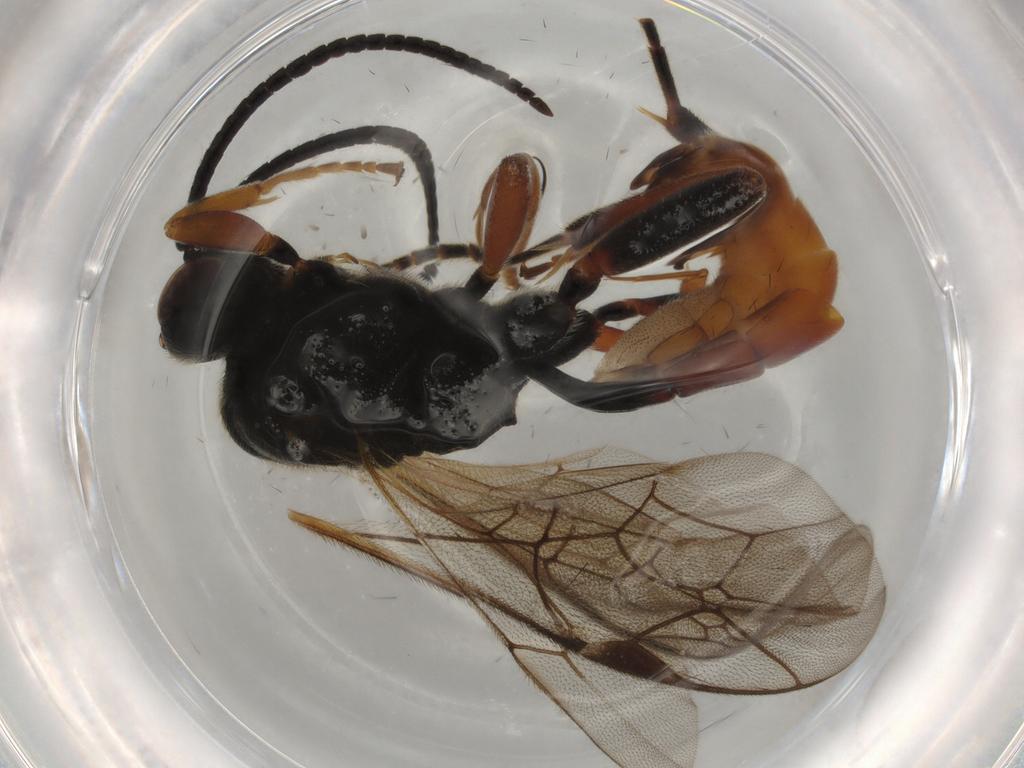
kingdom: Animalia
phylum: Arthropoda
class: Insecta
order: Hymenoptera
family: Ichneumonidae
